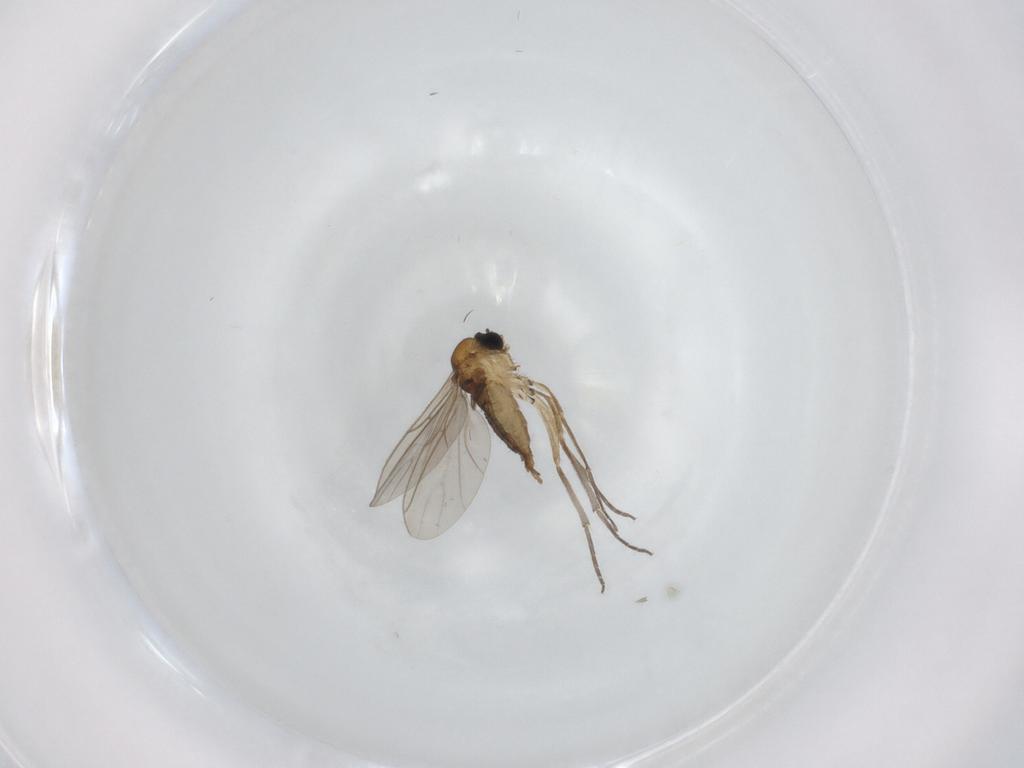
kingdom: Animalia
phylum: Arthropoda
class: Insecta
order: Diptera
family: Sciaridae
